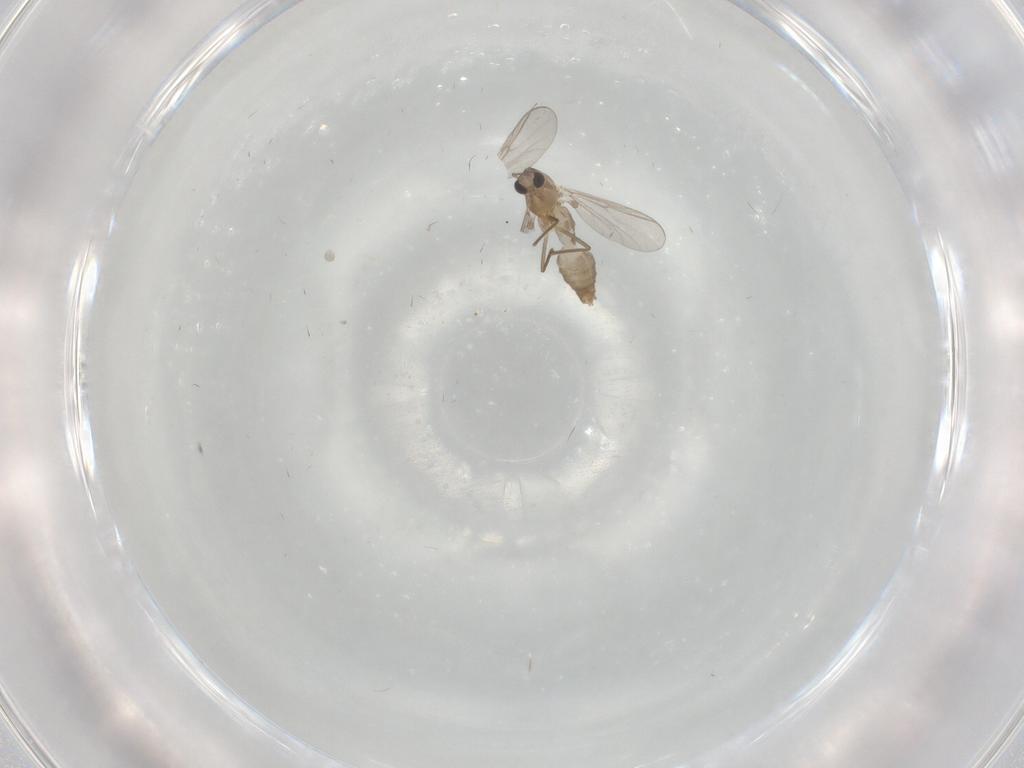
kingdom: Animalia
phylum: Arthropoda
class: Insecta
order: Diptera
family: Chironomidae
